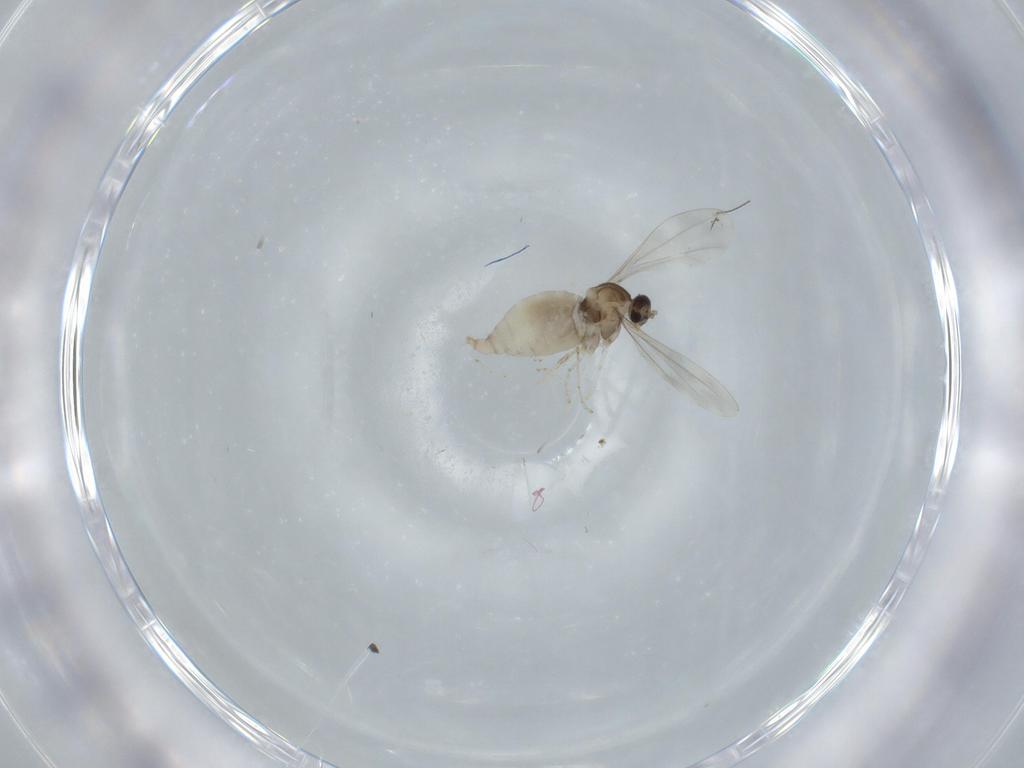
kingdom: Animalia
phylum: Arthropoda
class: Insecta
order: Diptera
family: Cecidomyiidae
